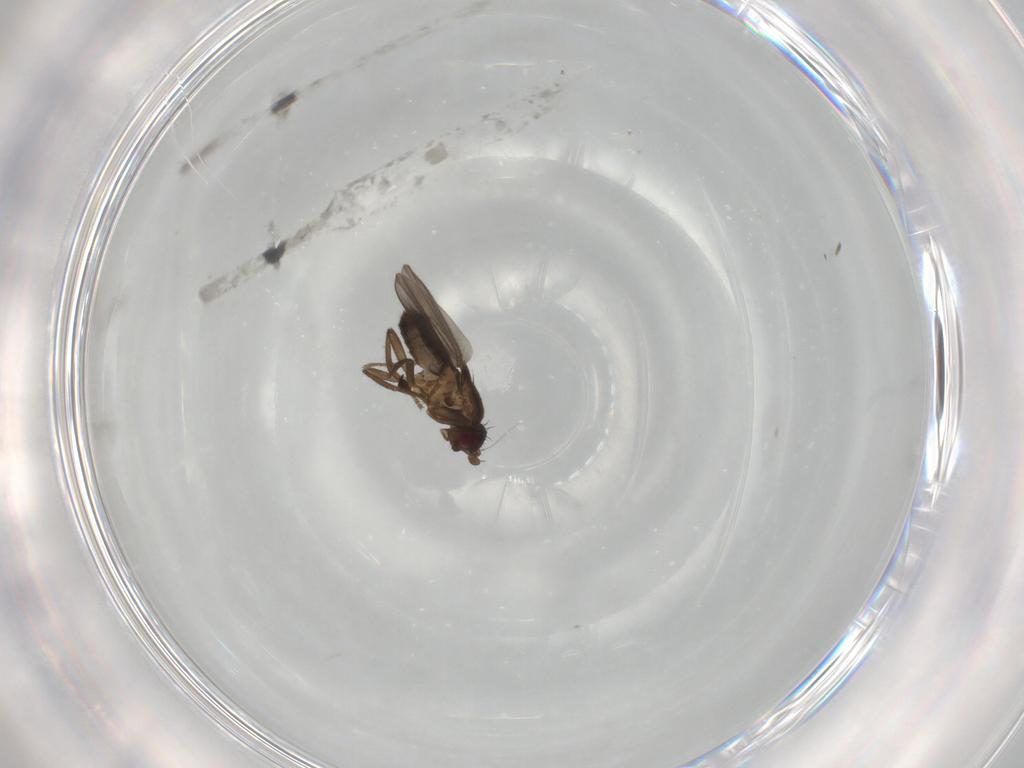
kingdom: Animalia
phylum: Arthropoda
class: Insecta
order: Diptera
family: Sphaeroceridae
